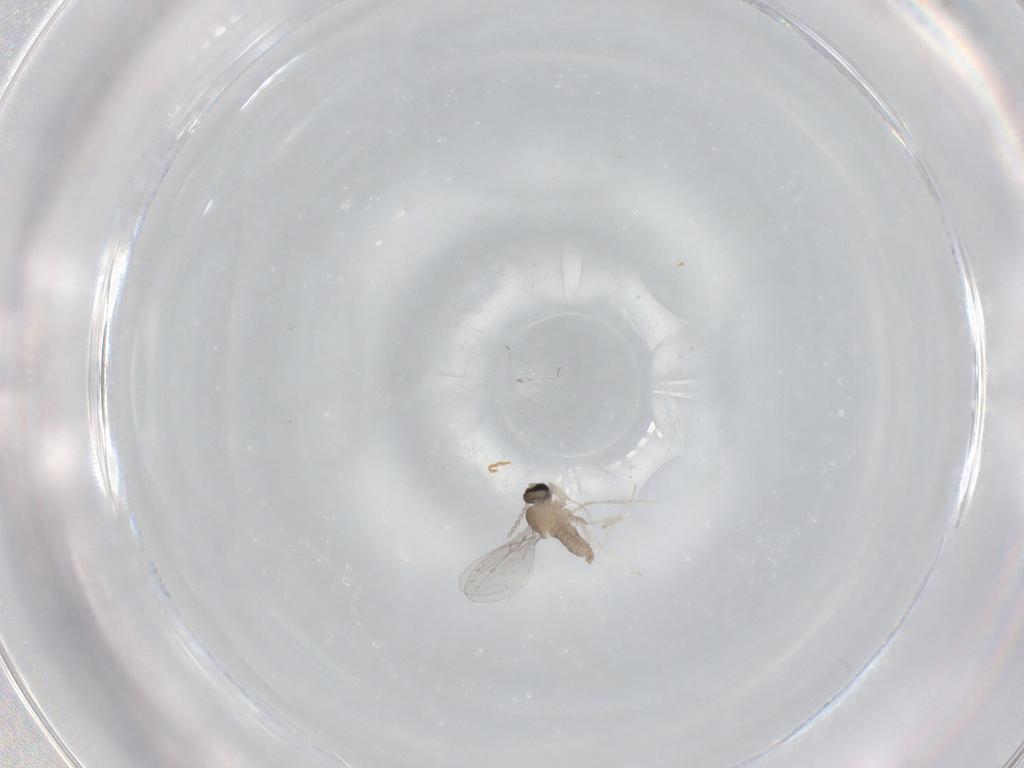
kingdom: Animalia
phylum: Arthropoda
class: Insecta
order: Diptera
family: Cecidomyiidae
